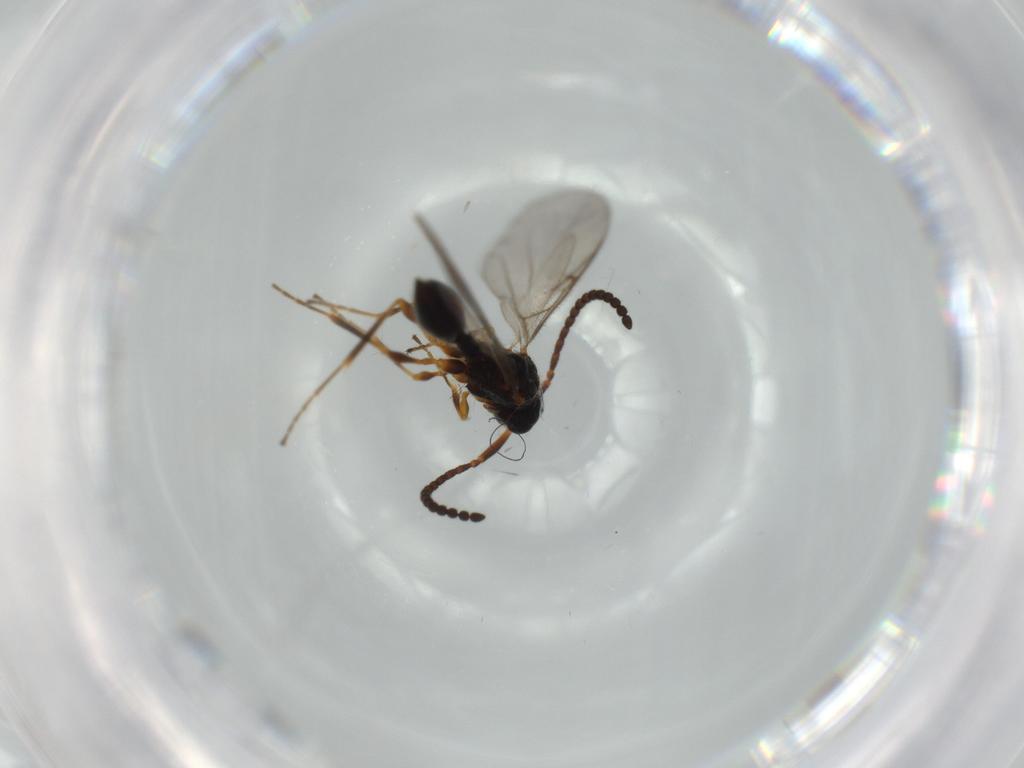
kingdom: Animalia
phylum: Arthropoda
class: Insecta
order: Hymenoptera
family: Diapriidae
